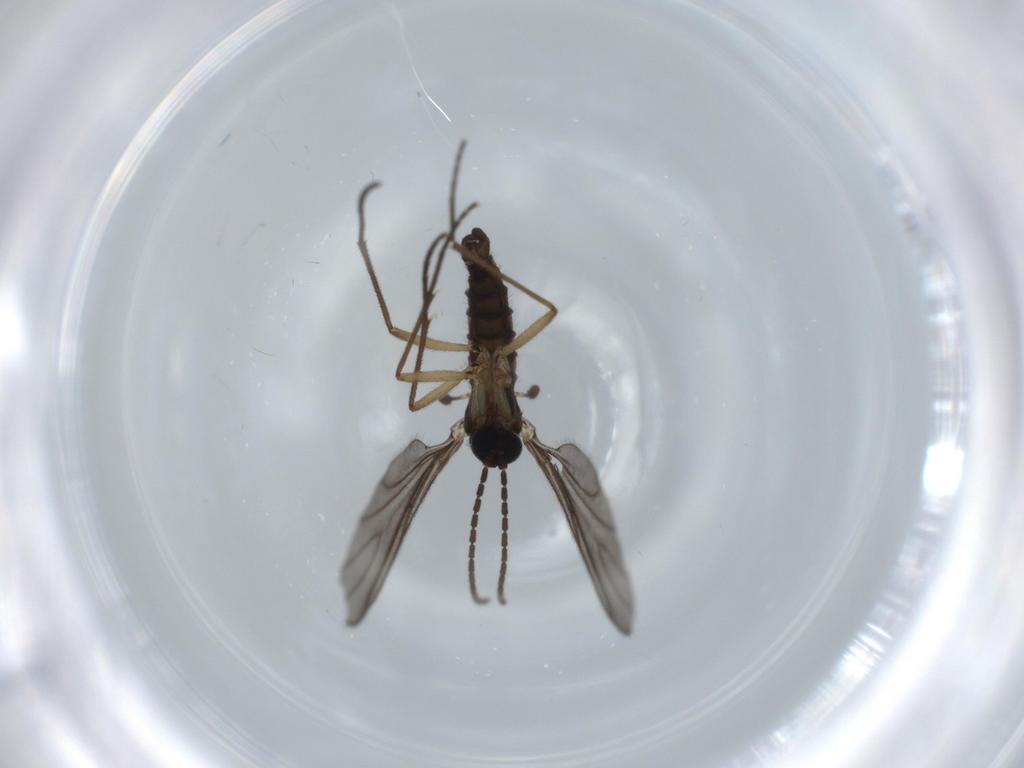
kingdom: Animalia
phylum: Arthropoda
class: Insecta
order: Diptera
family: Sciaridae
